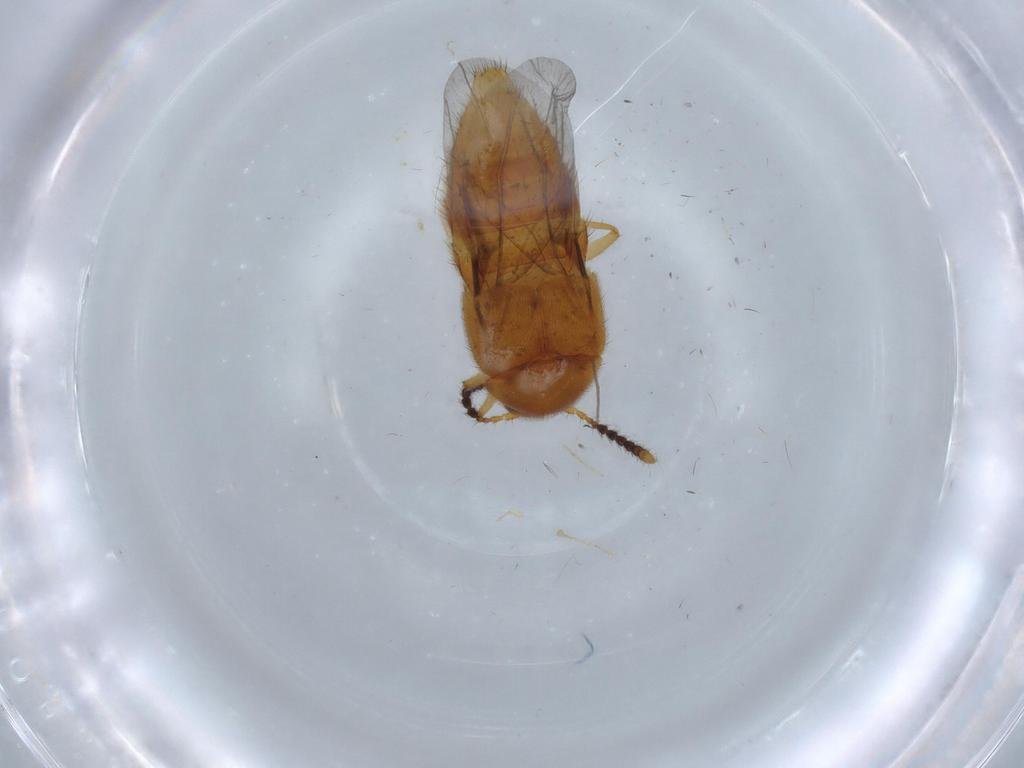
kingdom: Animalia
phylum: Arthropoda
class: Insecta
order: Coleoptera
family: Staphylinidae
